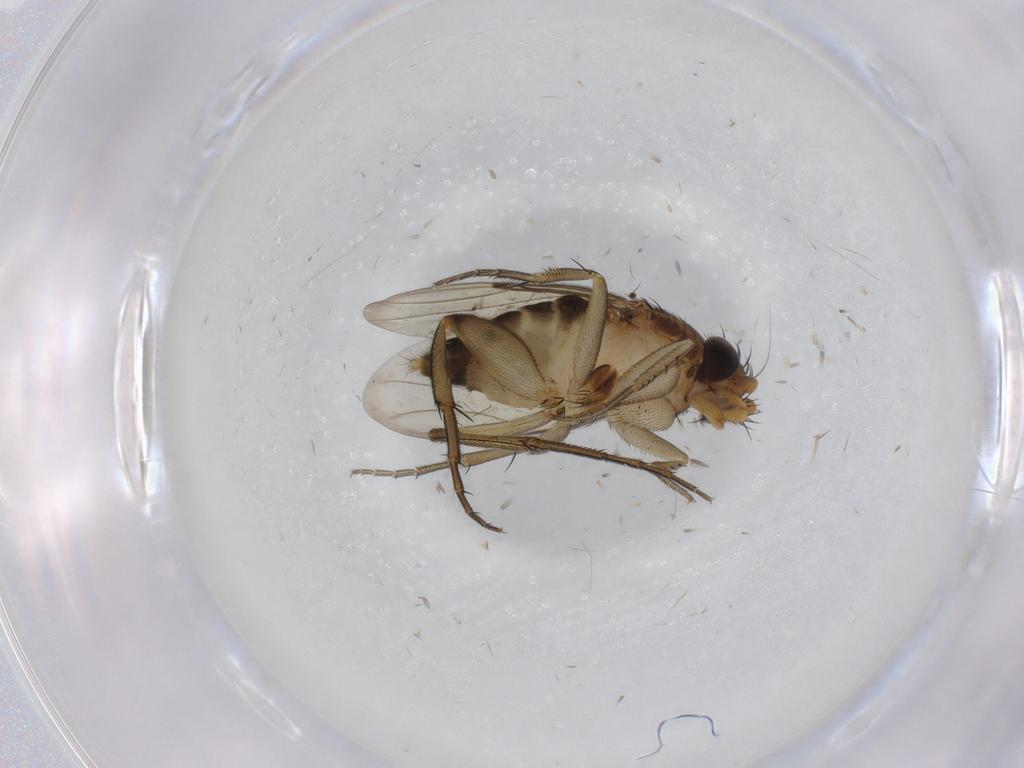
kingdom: Animalia
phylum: Arthropoda
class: Insecta
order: Diptera
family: Phoridae
